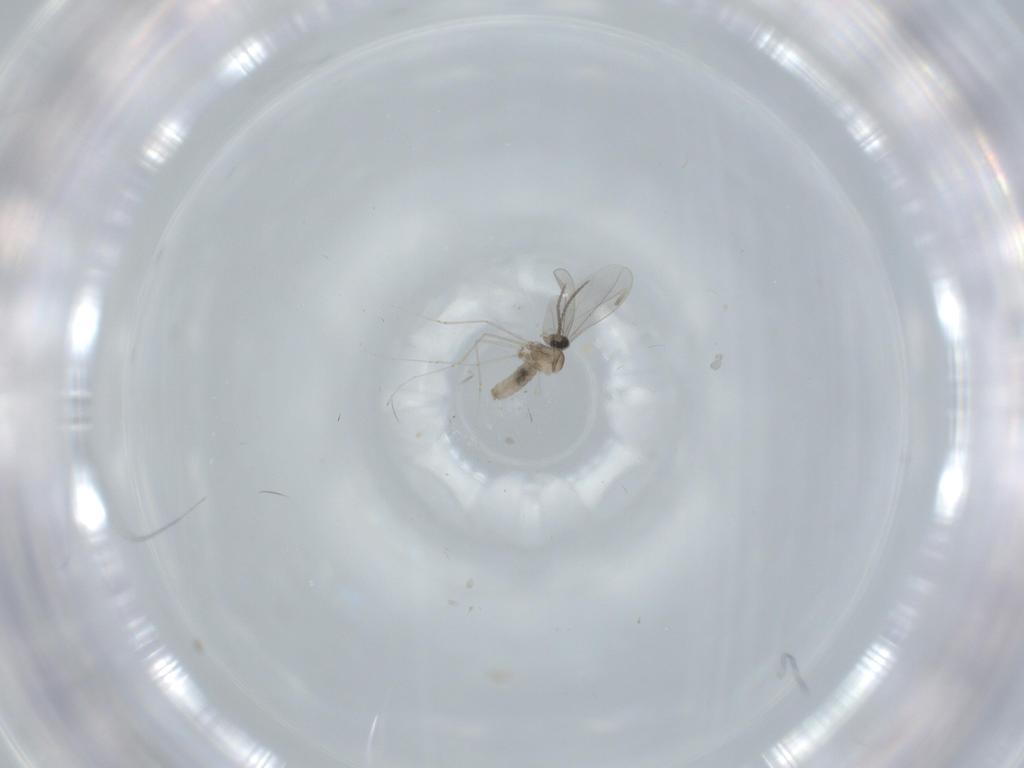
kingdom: Animalia
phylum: Arthropoda
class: Insecta
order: Diptera
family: Cecidomyiidae
